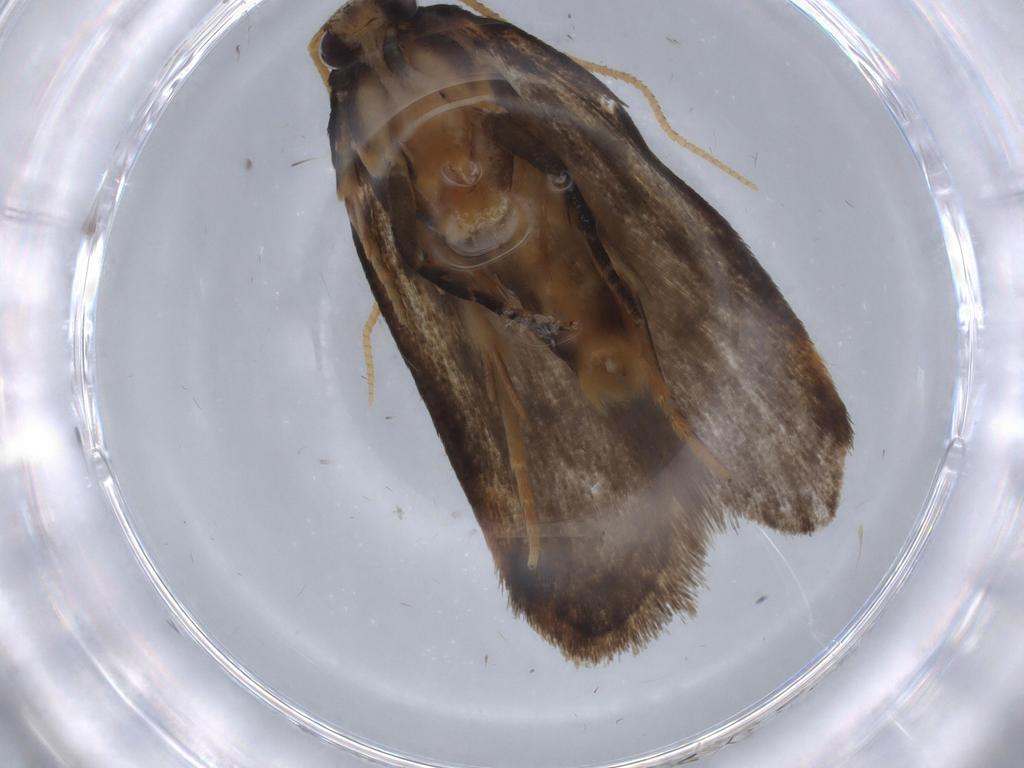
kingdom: Animalia
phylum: Arthropoda
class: Insecta
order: Lepidoptera
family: Oecophoridae
